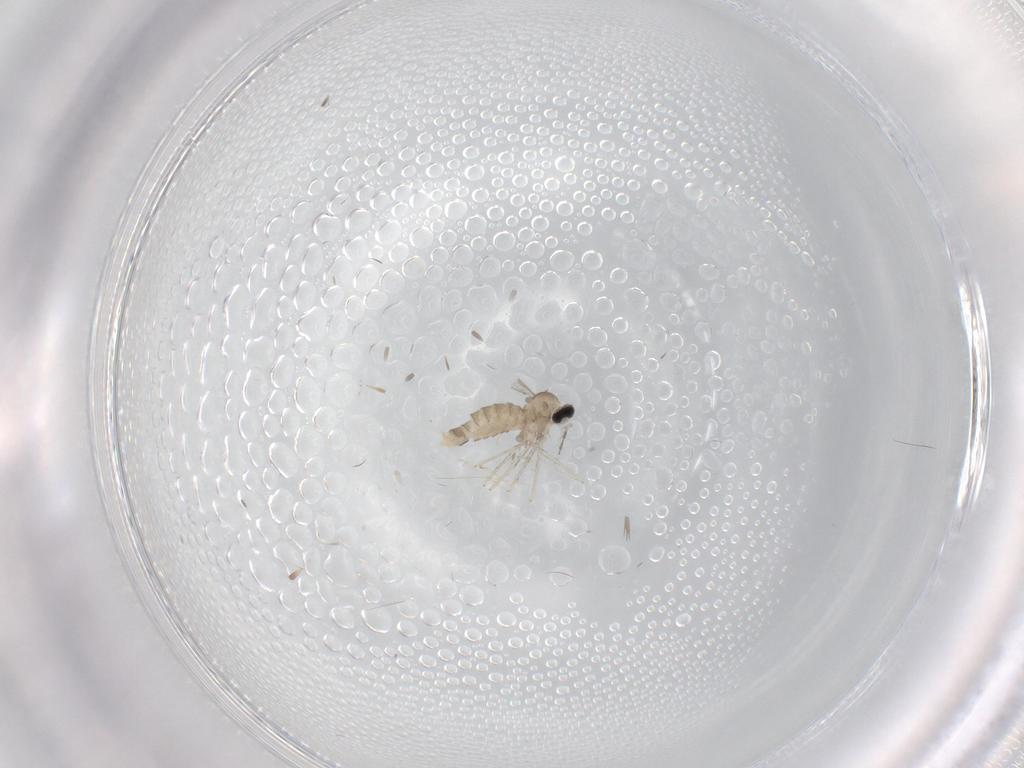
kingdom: Animalia
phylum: Arthropoda
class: Insecta
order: Diptera
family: Cecidomyiidae
